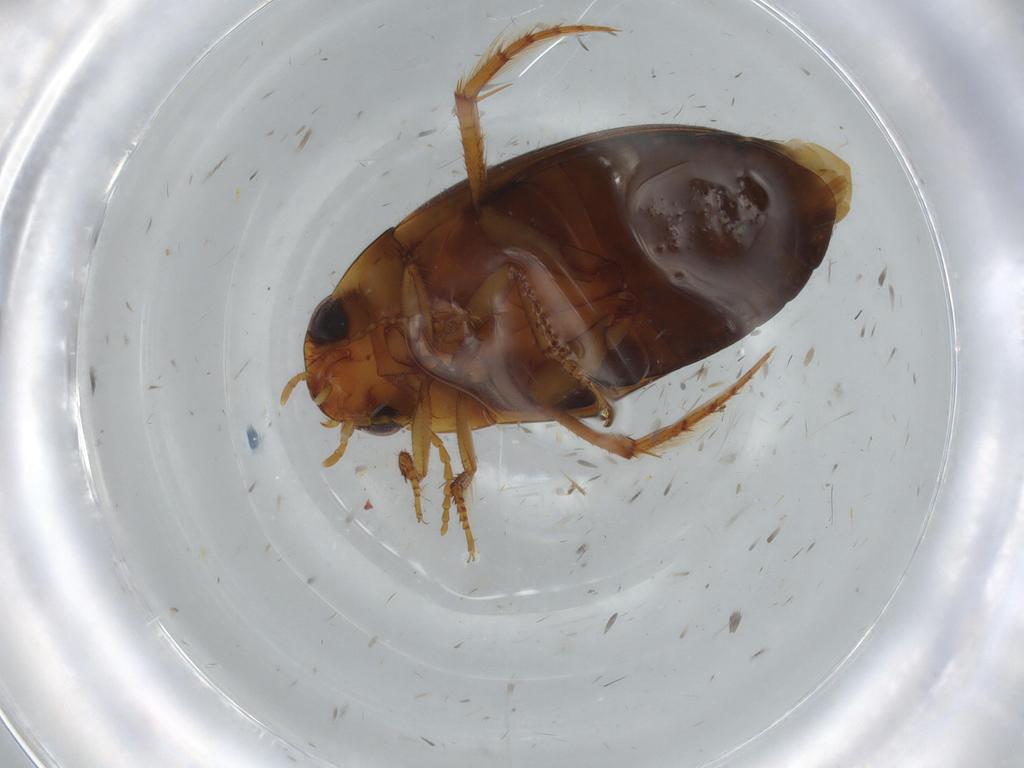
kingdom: Animalia
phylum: Arthropoda
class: Insecta
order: Coleoptera
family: Dytiscidae
